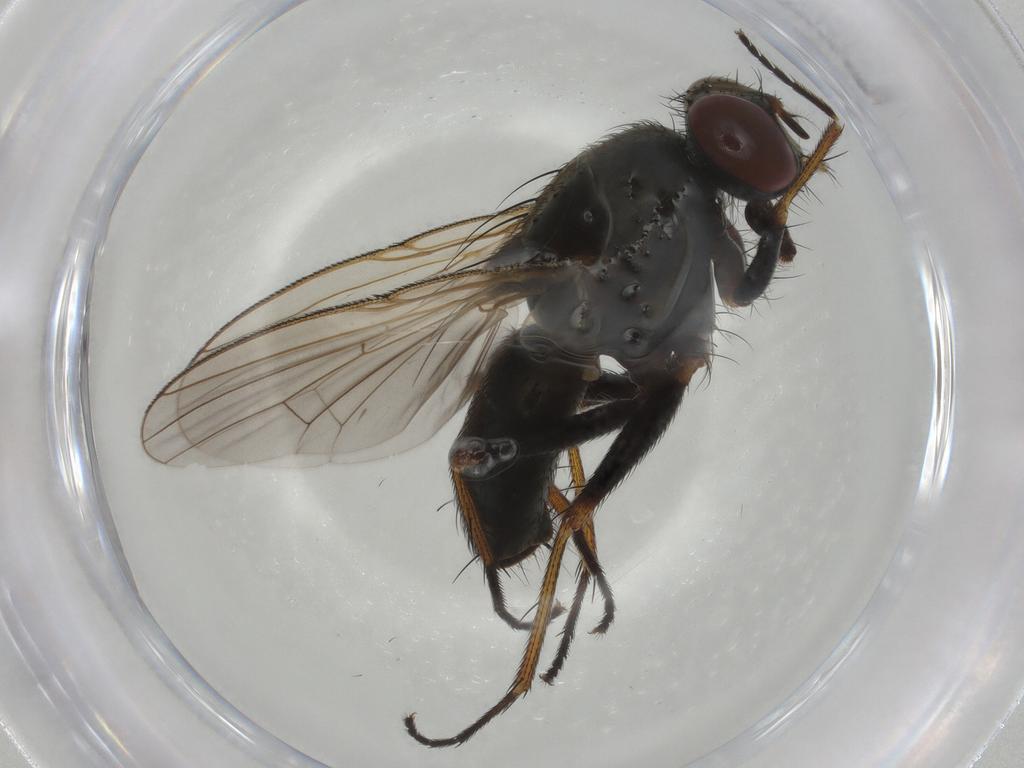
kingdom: Animalia
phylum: Arthropoda
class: Insecta
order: Diptera
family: Muscidae
